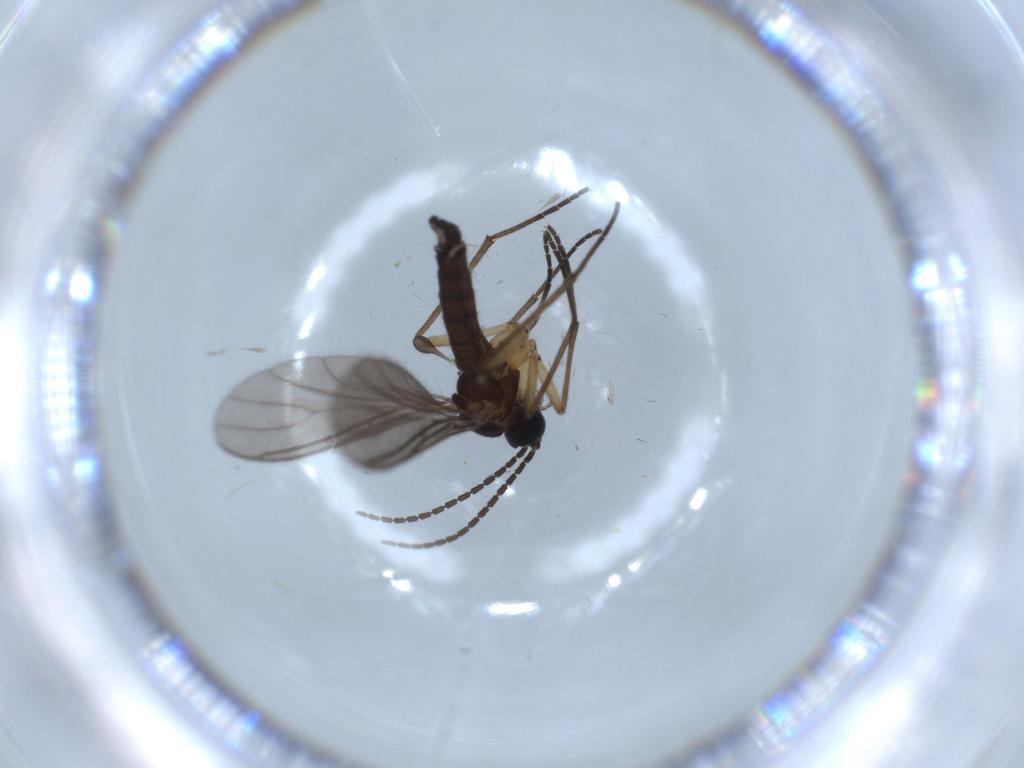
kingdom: Animalia
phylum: Arthropoda
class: Insecta
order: Diptera
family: Sciaridae
